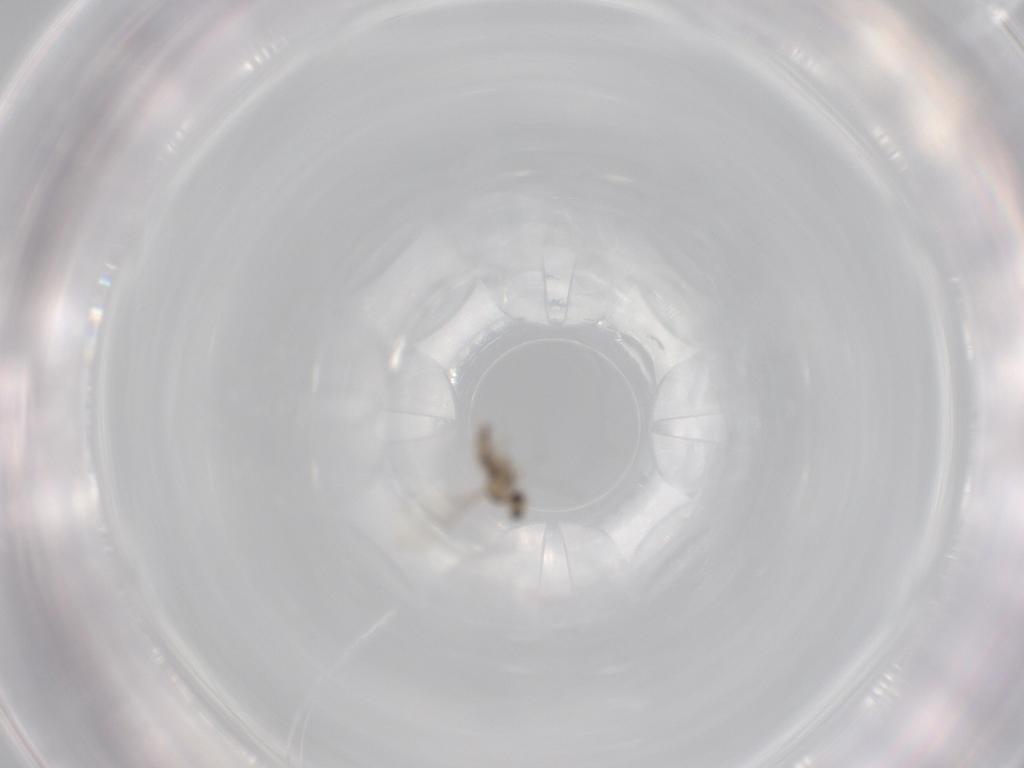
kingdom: Animalia
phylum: Arthropoda
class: Insecta
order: Diptera
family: Cecidomyiidae
